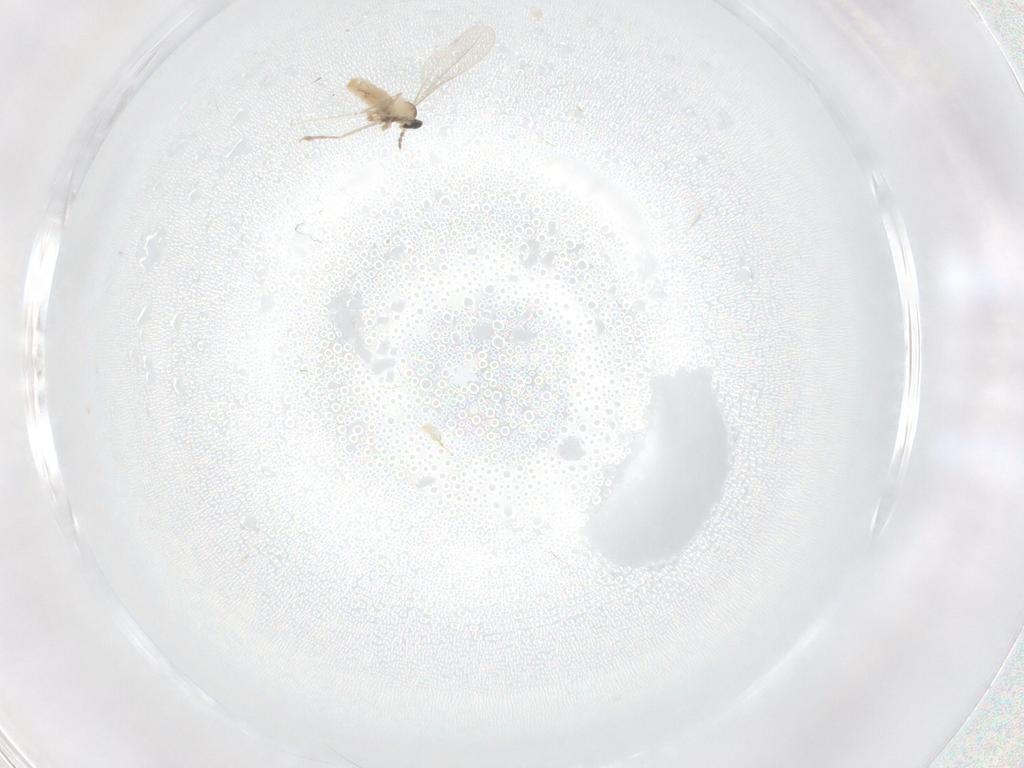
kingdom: Animalia
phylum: Arthropoda
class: Insecta
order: Diptera
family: Cecidomyiidae
